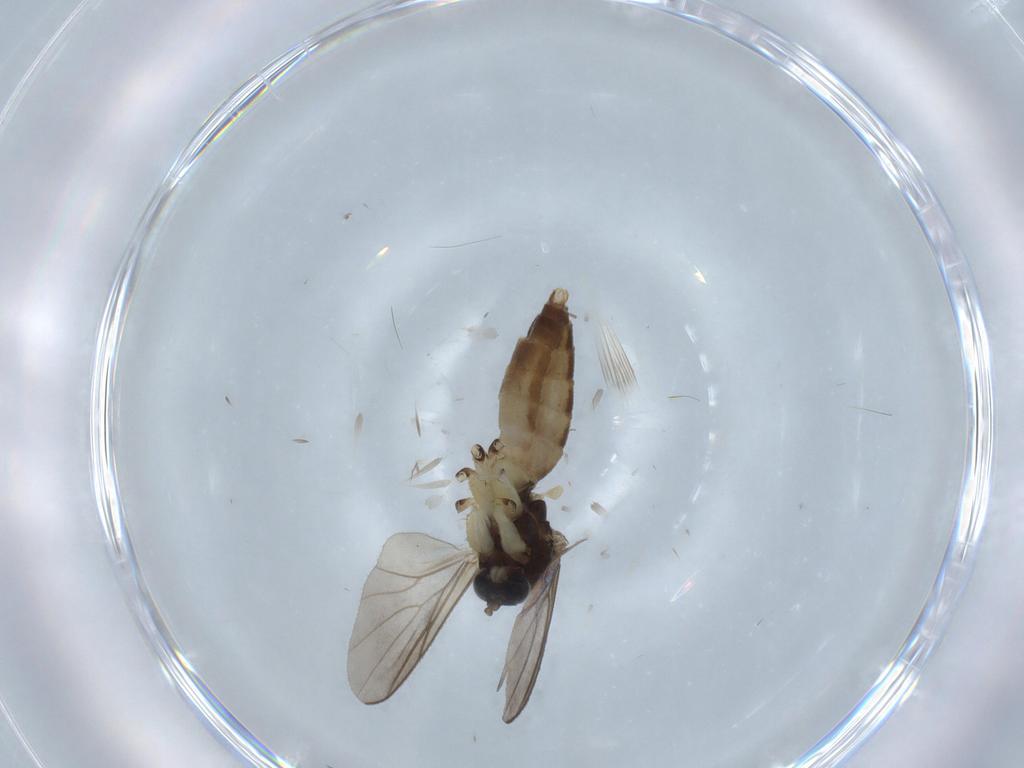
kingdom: Animalia
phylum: Arthropoda
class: Insecta
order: Diptera
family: Cecidomyiidae
